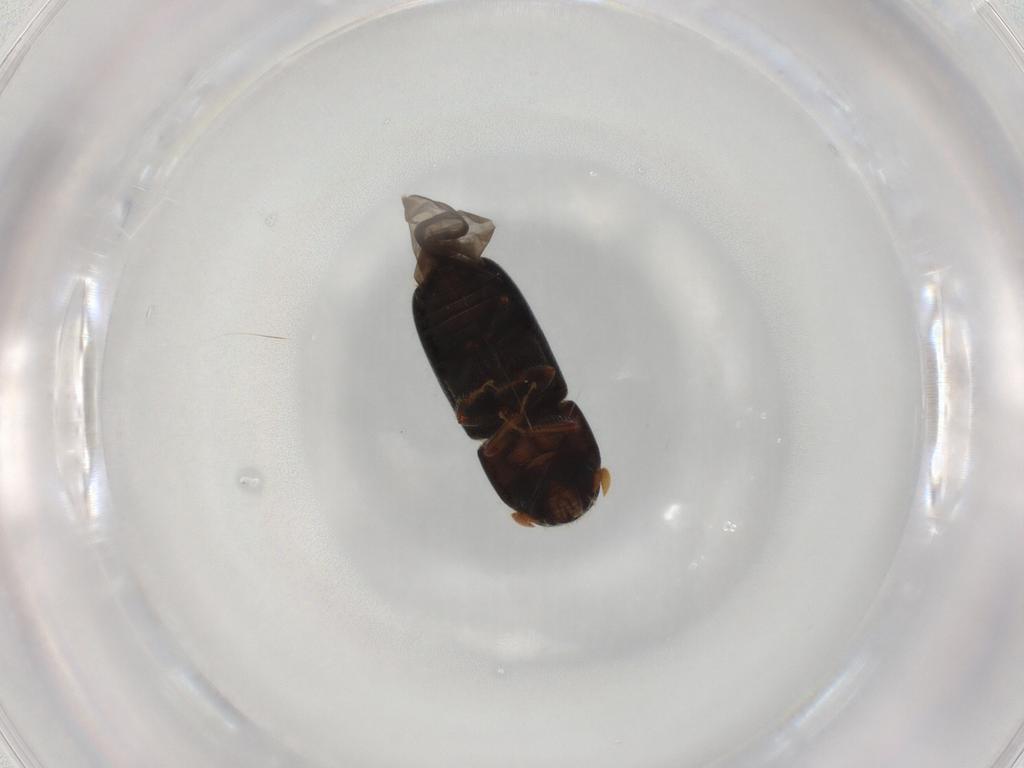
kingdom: Animalia
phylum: Arthropoda
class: Insecta
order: Coleoptera
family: Curculionidae
